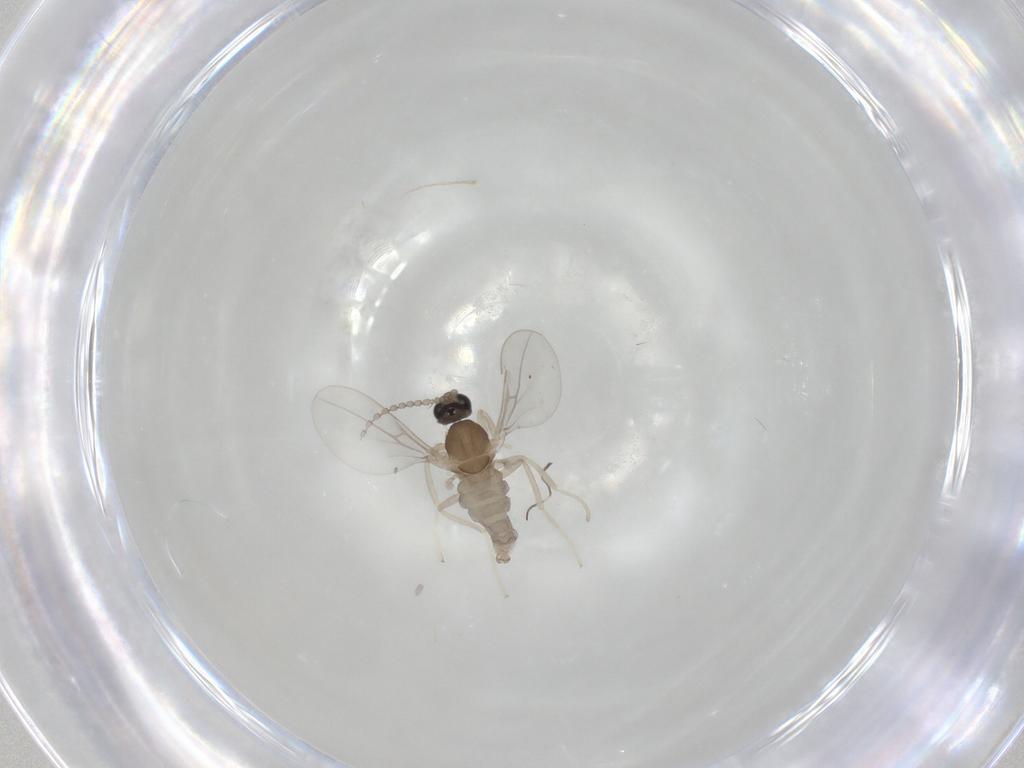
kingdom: Animalia
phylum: Arthropoda
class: Insecta
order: Diptera
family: Cecidomyiidae
